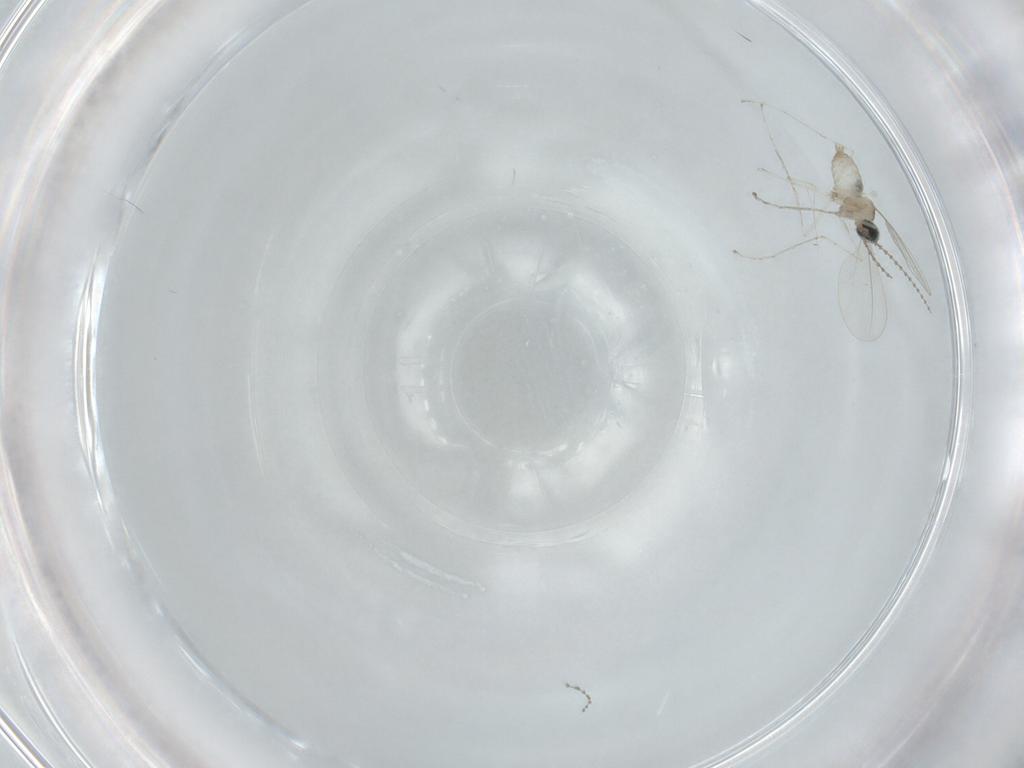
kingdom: Animalia
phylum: Arthropoda
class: Insecta
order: Diptera
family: Cecidomyiidae
